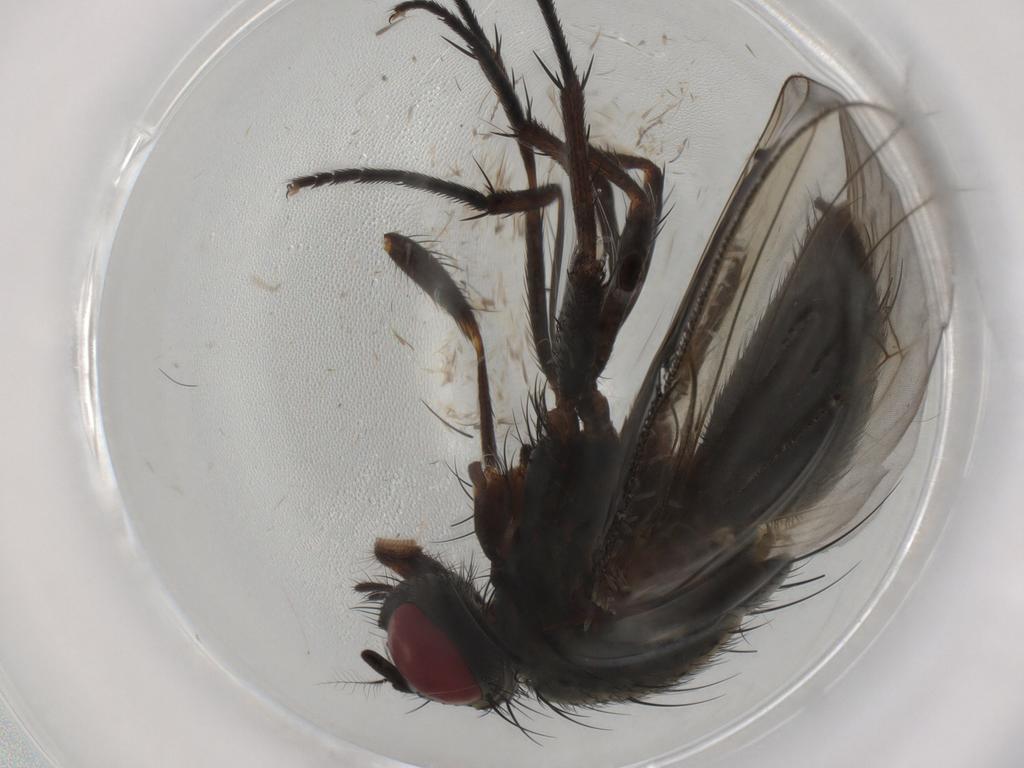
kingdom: Animalia
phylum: Arthropoda
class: Insecta
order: Diptera
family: Muscidae
